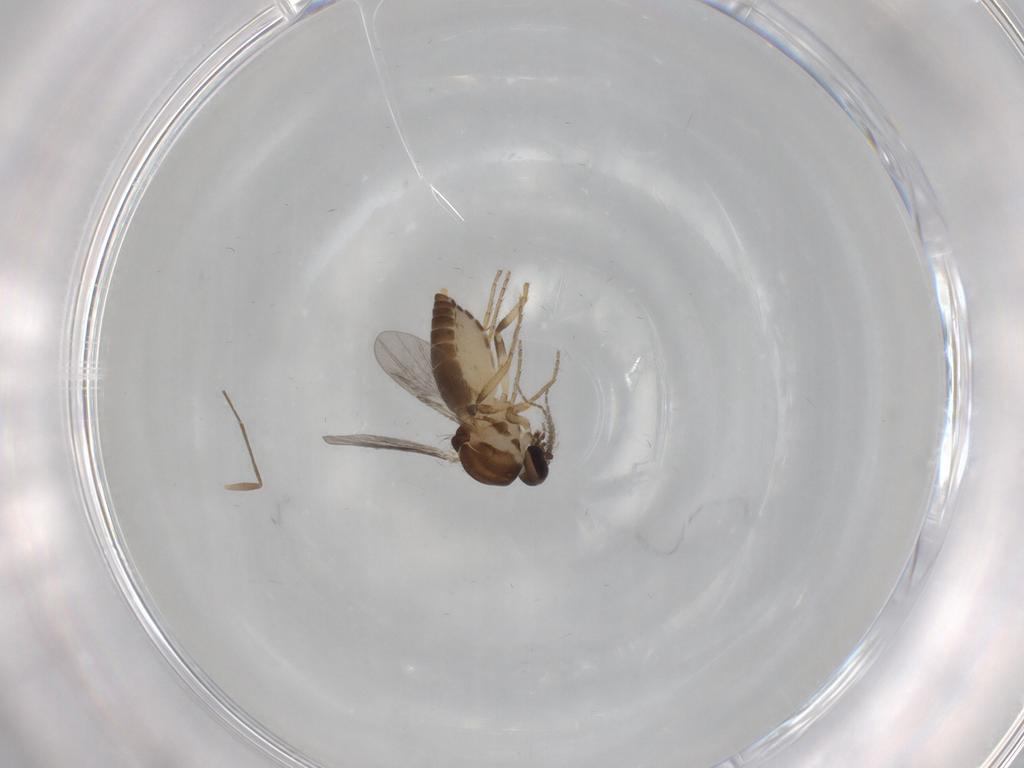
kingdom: Animalia
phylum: Arthropoda
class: Insecta
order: Diptera
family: Ceratopogonidae
